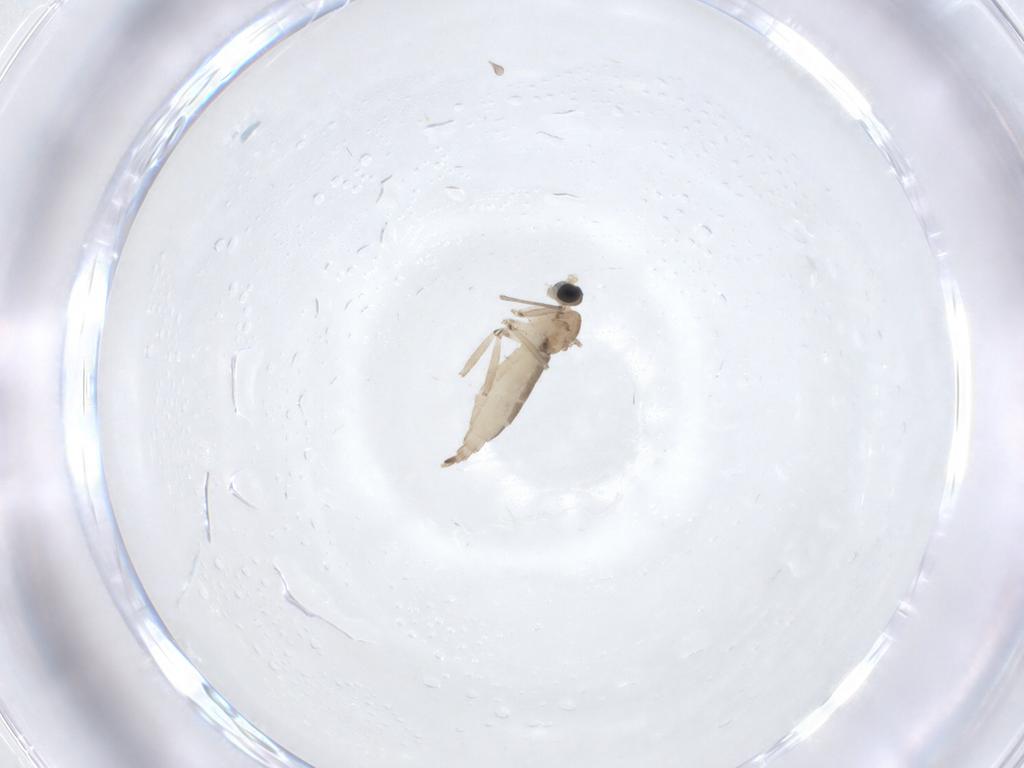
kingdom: Animalia
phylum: Arthropoda
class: Insecta
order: Diptera
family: Sciaridae
